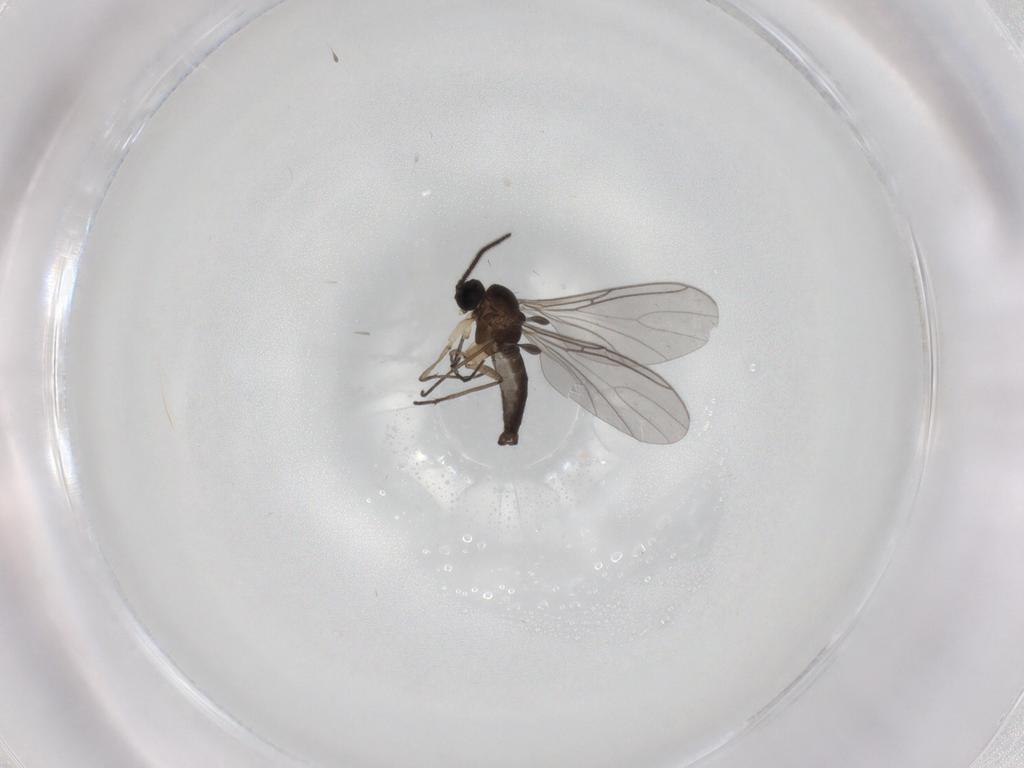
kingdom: Animalia
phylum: Arthropoda
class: Insecta
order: Diptera
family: Sciaridae
